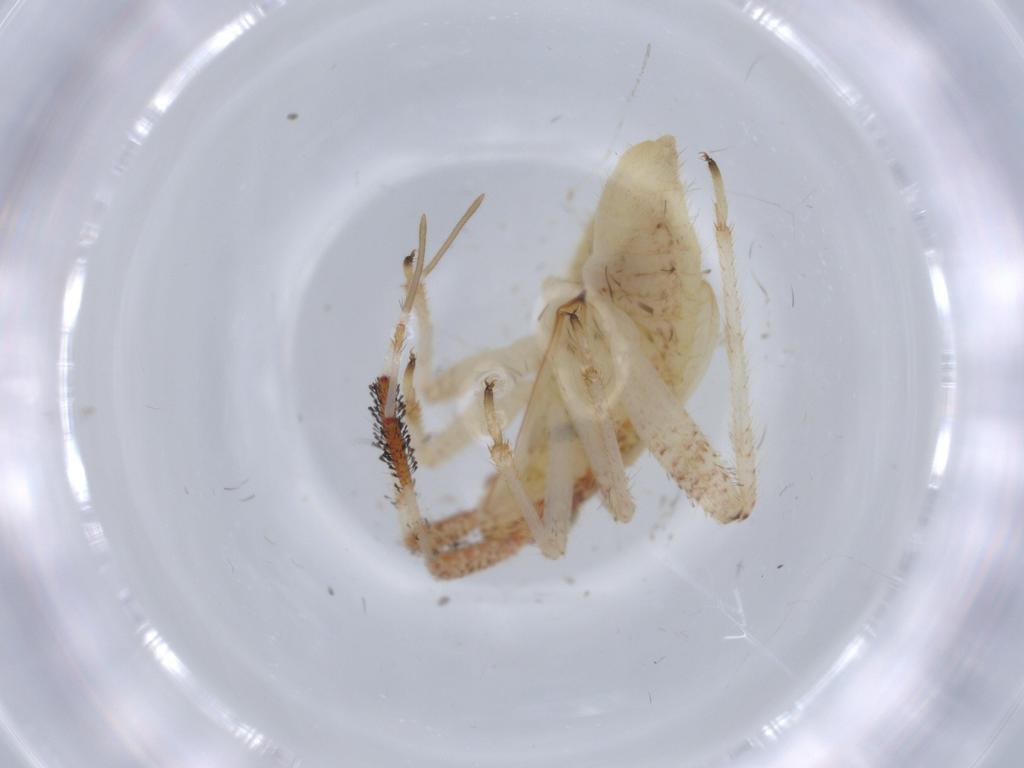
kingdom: Animalia
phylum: Arthropoda
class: Insecta
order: Hemiptera
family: Miridae
